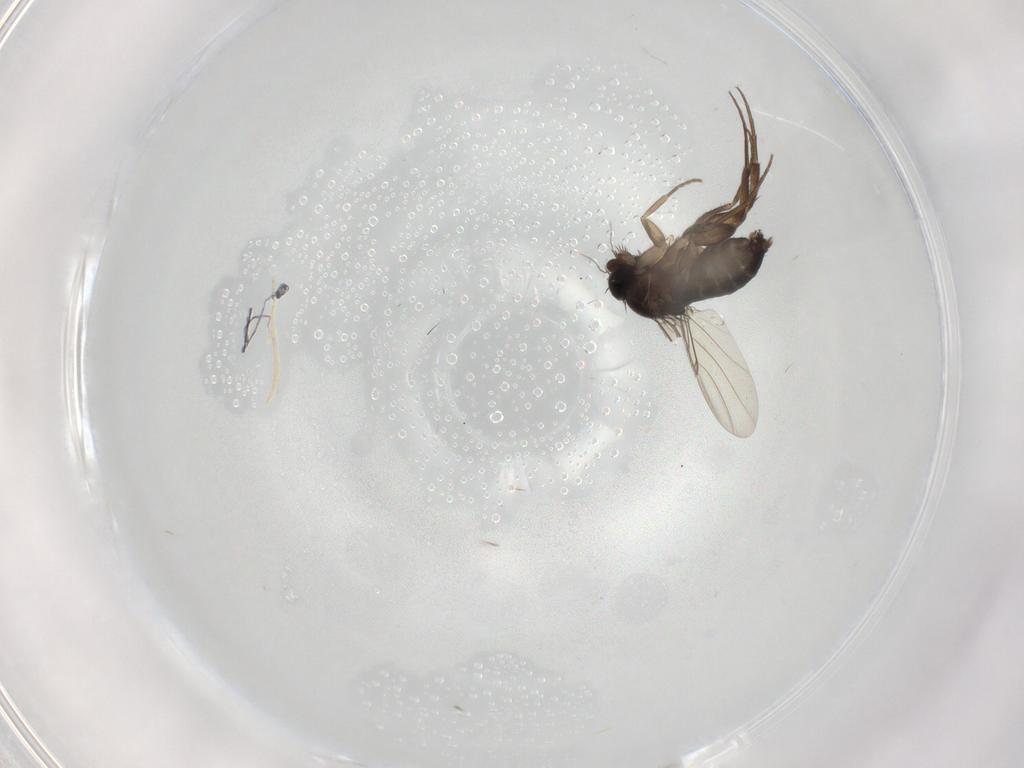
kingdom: Animalia
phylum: Arthropoda
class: Insecta
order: Diptera
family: Phoridae
